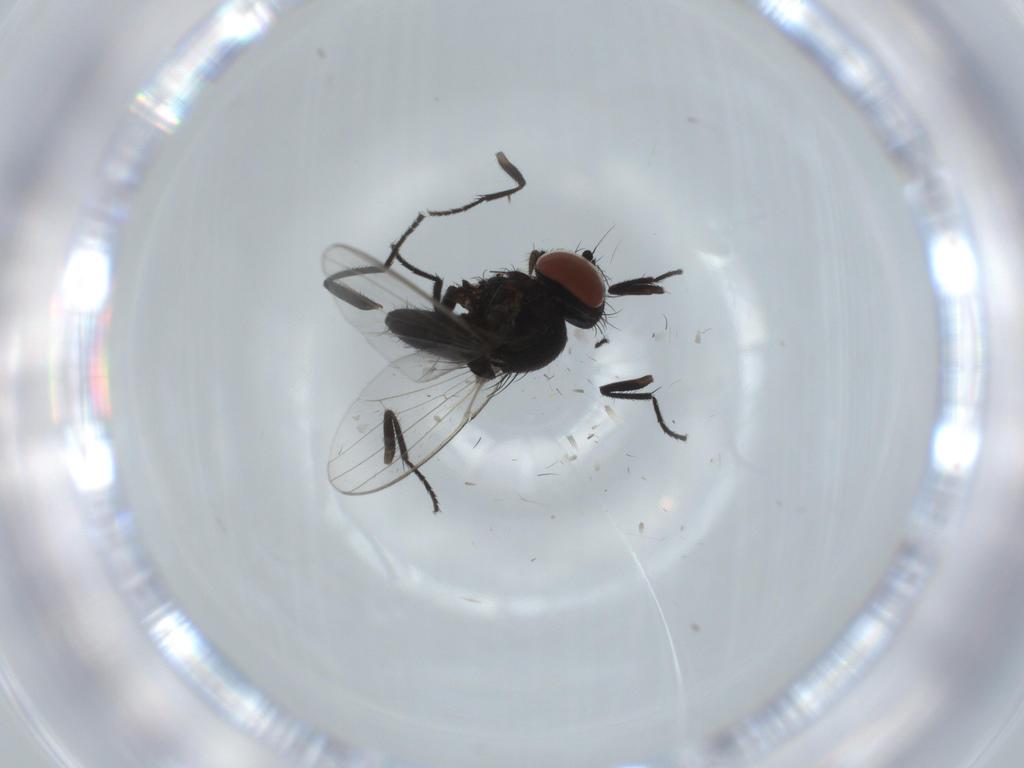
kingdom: Animalia
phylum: Arthropoda
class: Insecta
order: Diptera
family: Milichiidae
